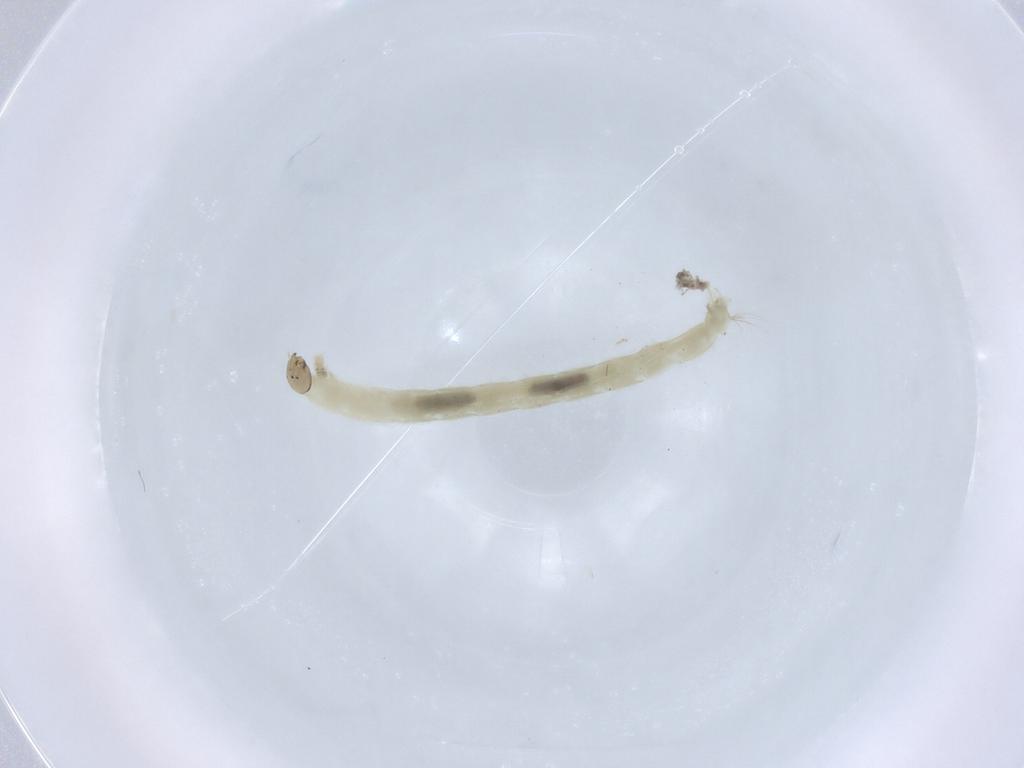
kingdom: Animalia
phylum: Arthropoda
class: Insecta
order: Diptera
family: Chironomidae
